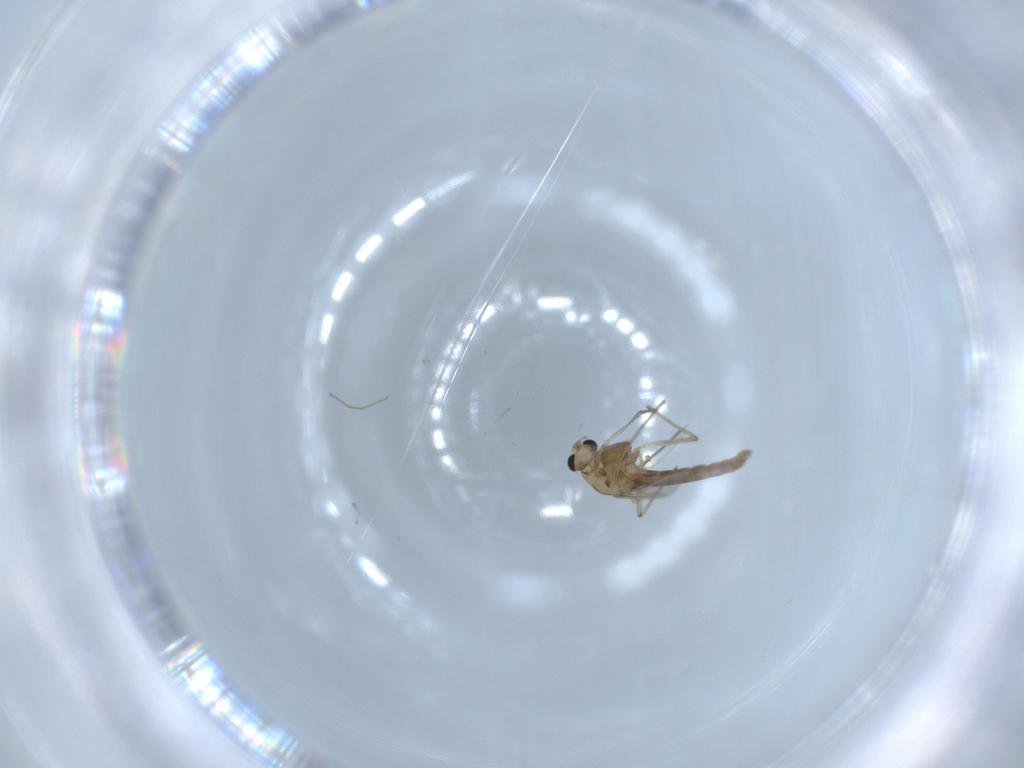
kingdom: Animalia
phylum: Arthropoda
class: Insecta
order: Diptera
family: Chironomidae
